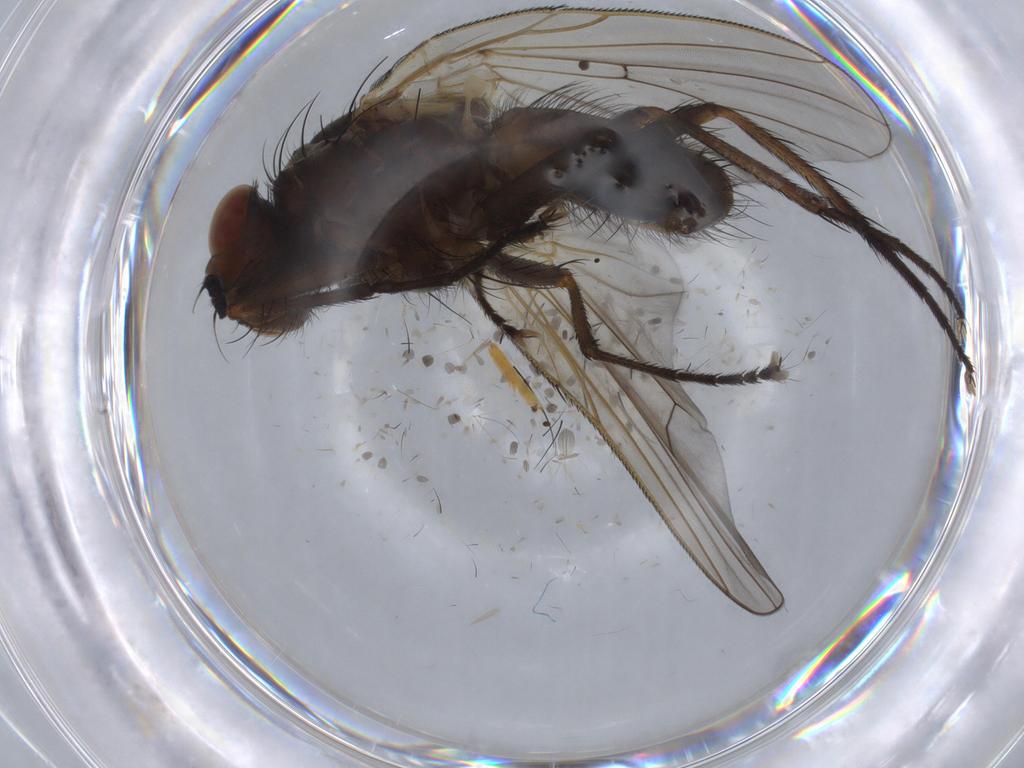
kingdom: Animalia
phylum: Arthropoda
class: Insecta
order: Diptera
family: Anthomyiidae
